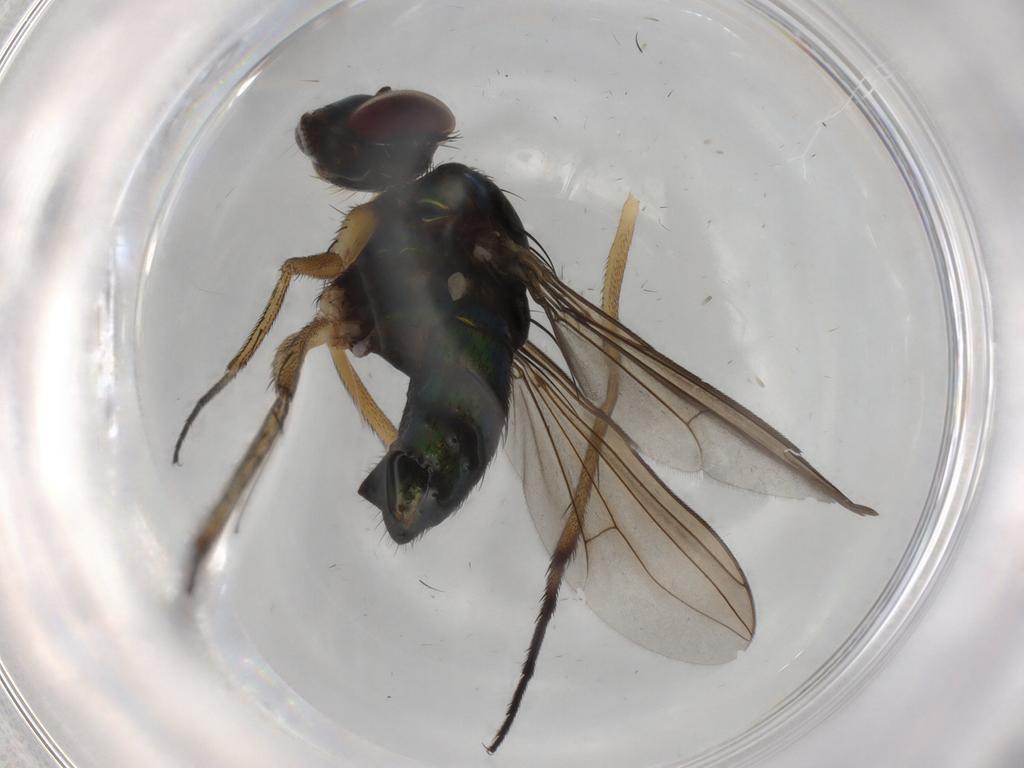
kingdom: Animalia
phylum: Arthropoda
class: Insecta
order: Diptera
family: Dolichopodidae
